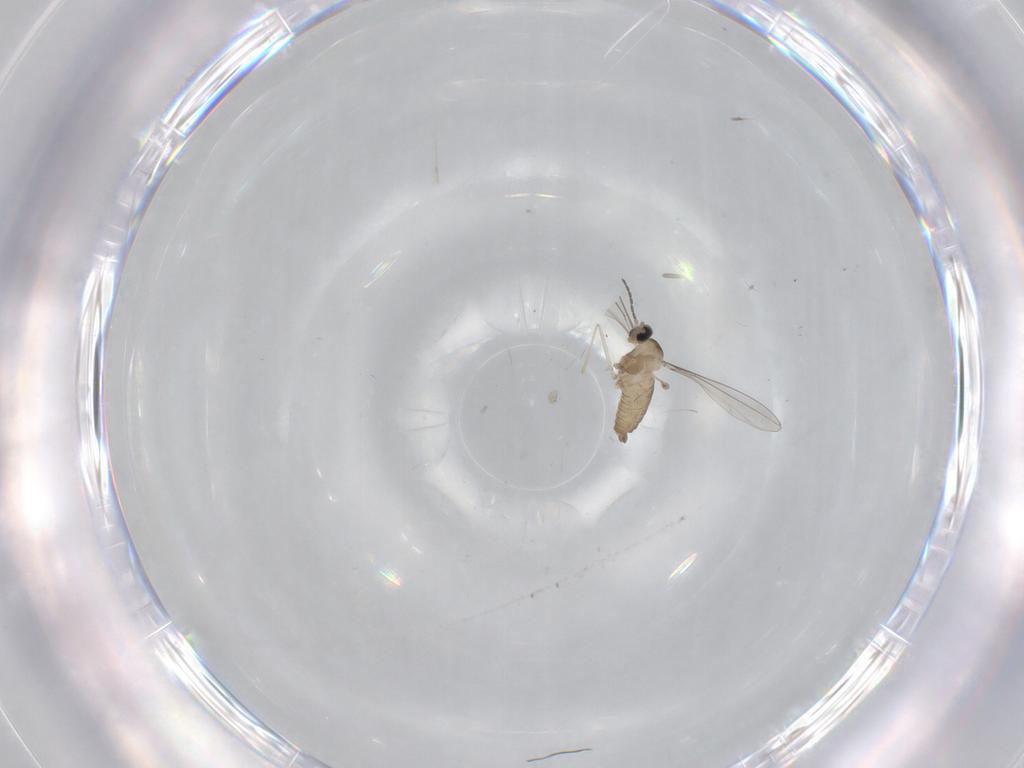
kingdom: Animalia
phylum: Arthropoda
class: Insecta
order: Diptera
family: Cecidomyiidae
